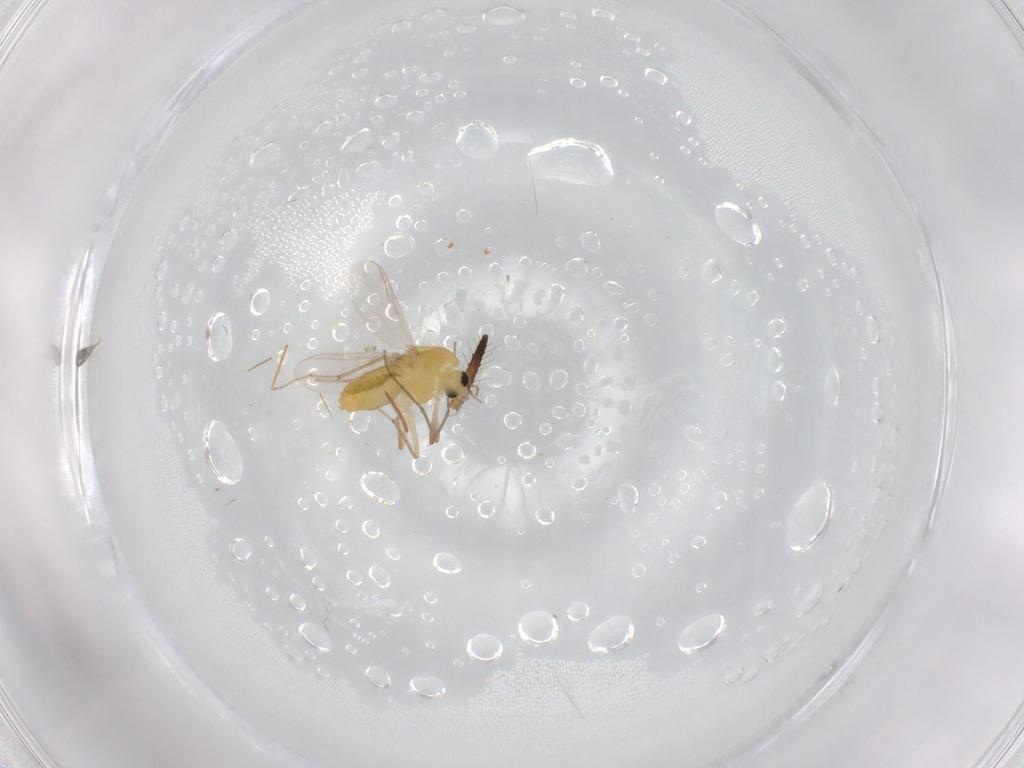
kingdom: Animalia
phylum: Arthropoda
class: Insecta
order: Diptera
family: Chironomidae
